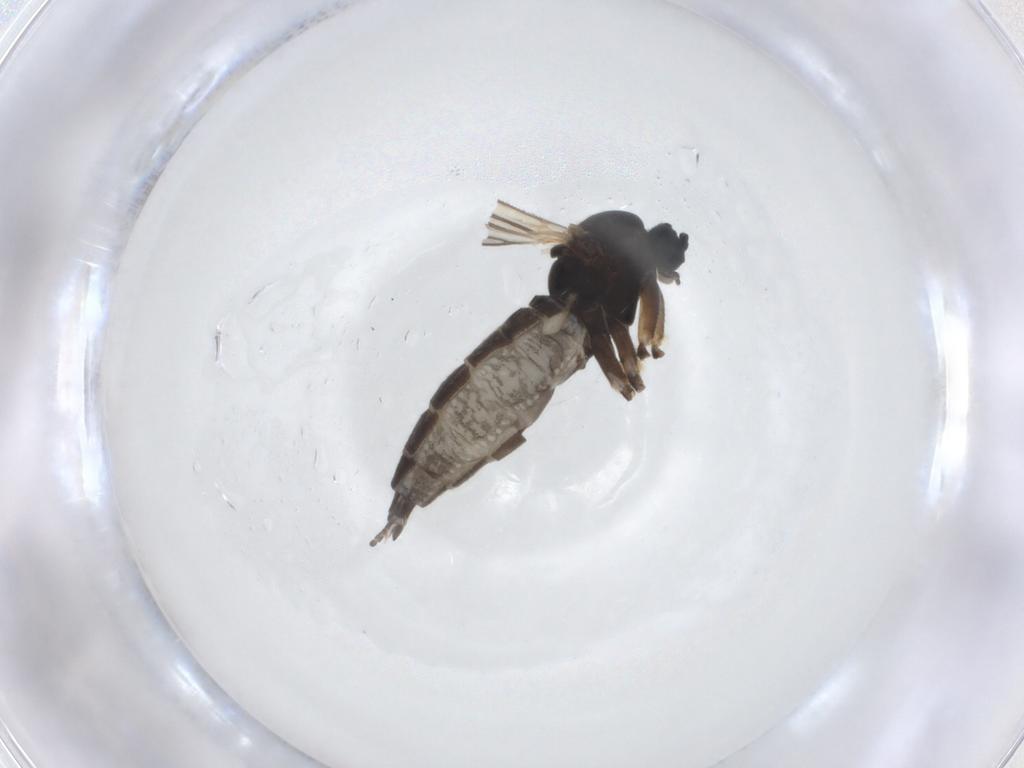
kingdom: Animalia
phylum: Arthropoda
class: Insecta
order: Diptera
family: Sciaridae
